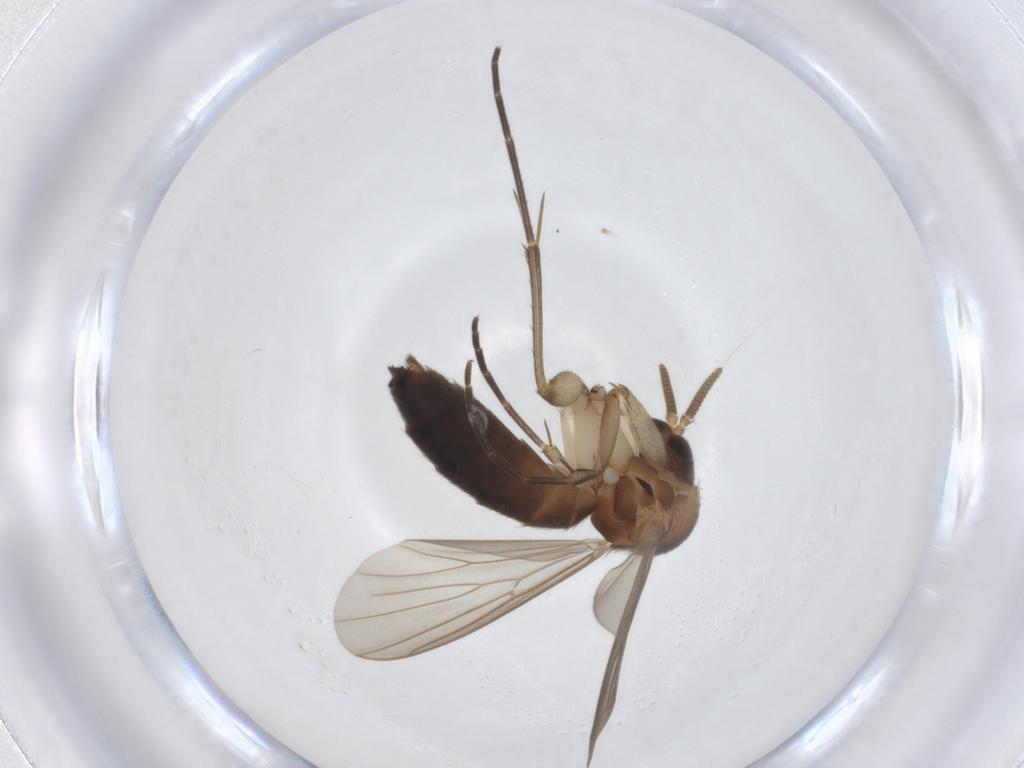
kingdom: Animalia
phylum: Arthropoda
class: Insecta
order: Diptera
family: Mycetophilidae
